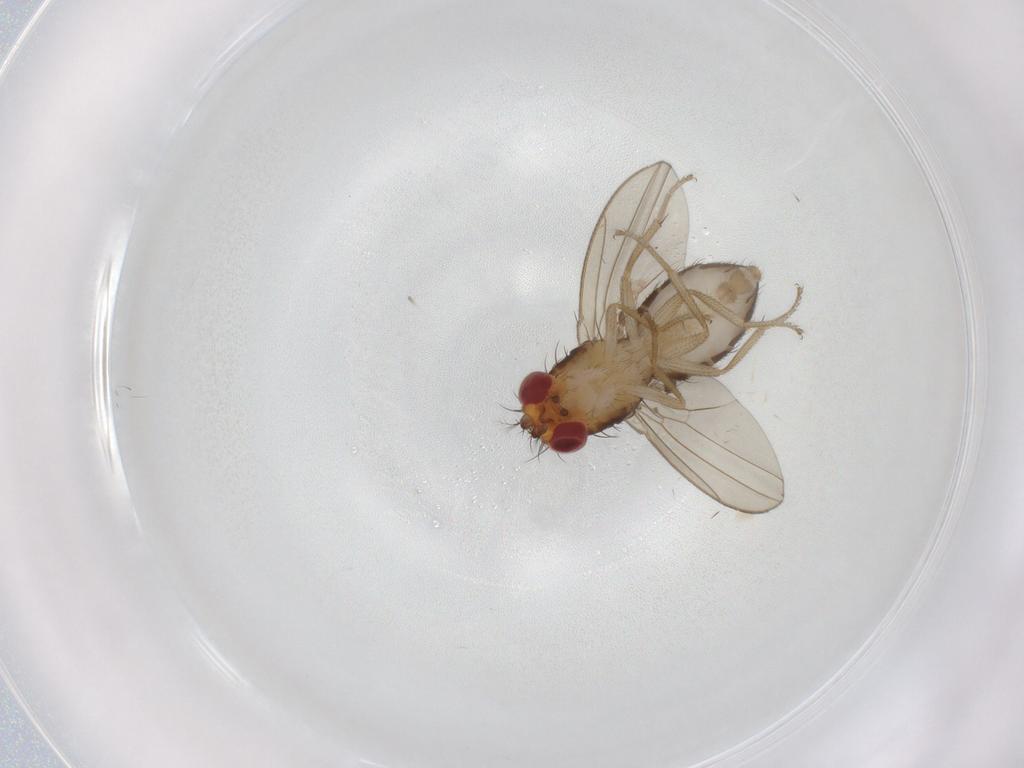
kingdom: Animalia
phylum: Arthropoda
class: Insecta
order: Diptera
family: Drosophilidae
